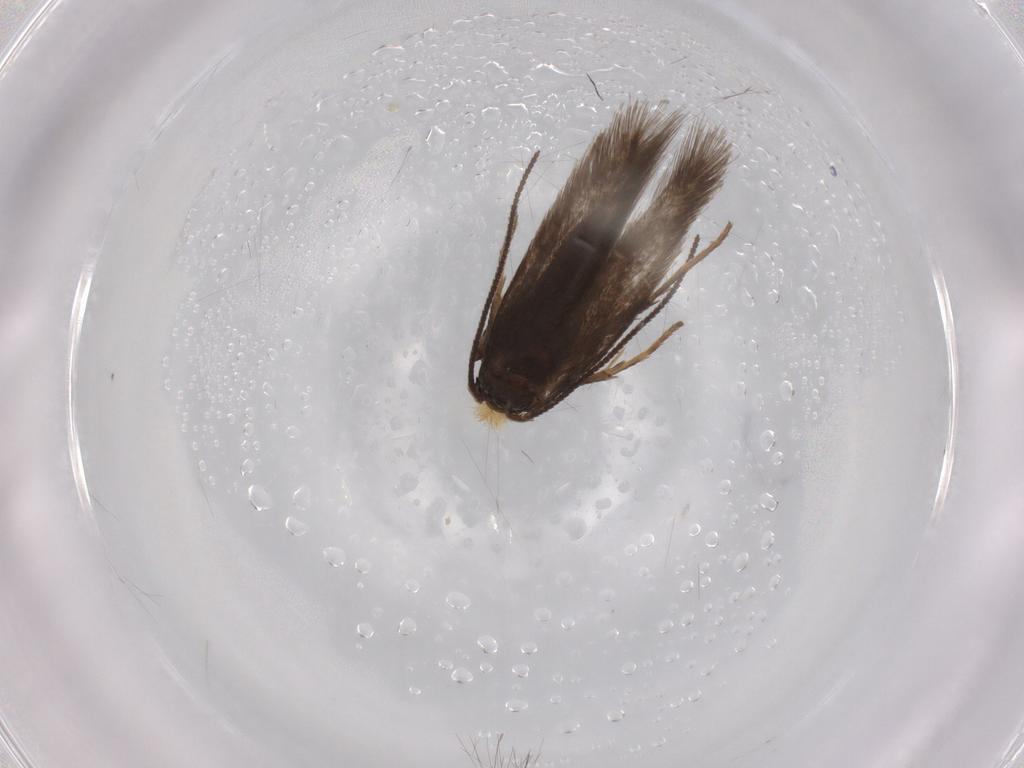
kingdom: Animalia
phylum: Arthropoda
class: Insecta
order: Lepidoptera
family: Nepticulidae
